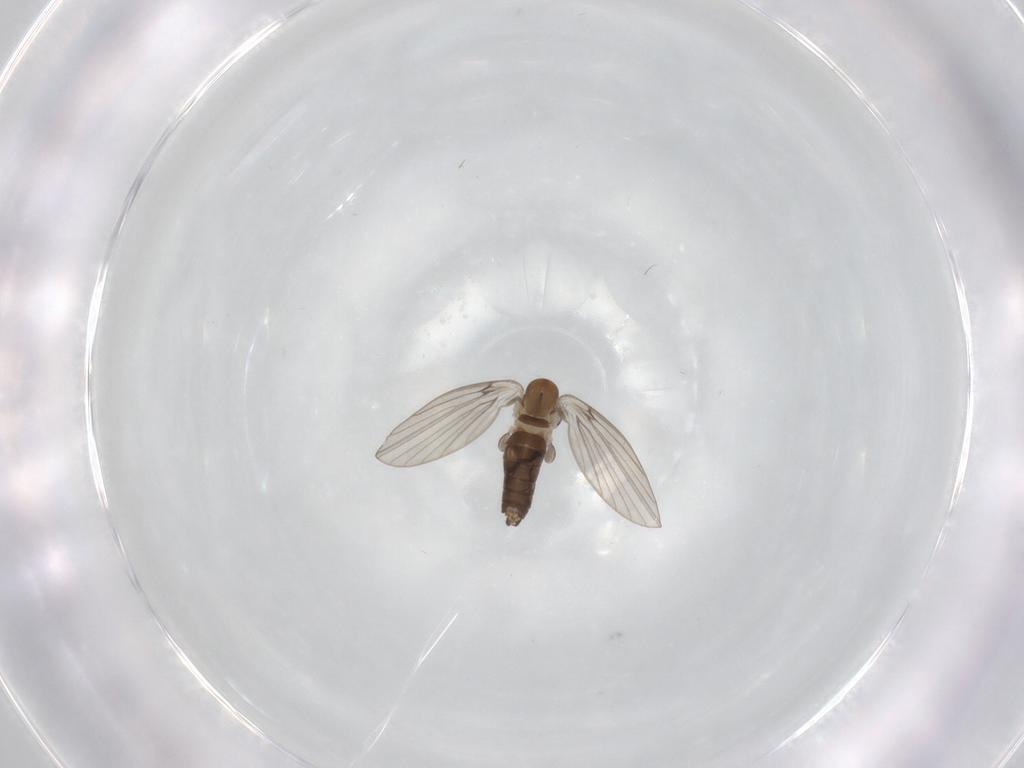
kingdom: Animalia
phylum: Arthropoda
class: Insecta
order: Diptera
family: Psychodidae
